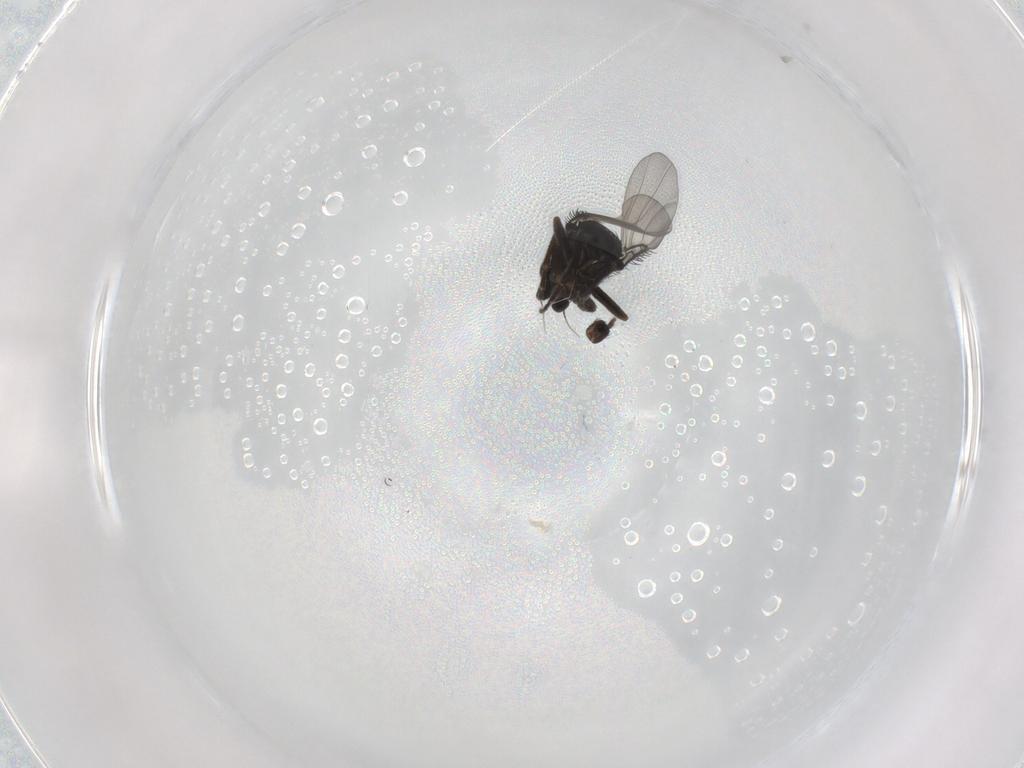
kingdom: Animalia
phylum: Arthropoda
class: Insecta
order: Diptera
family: Phoridae
